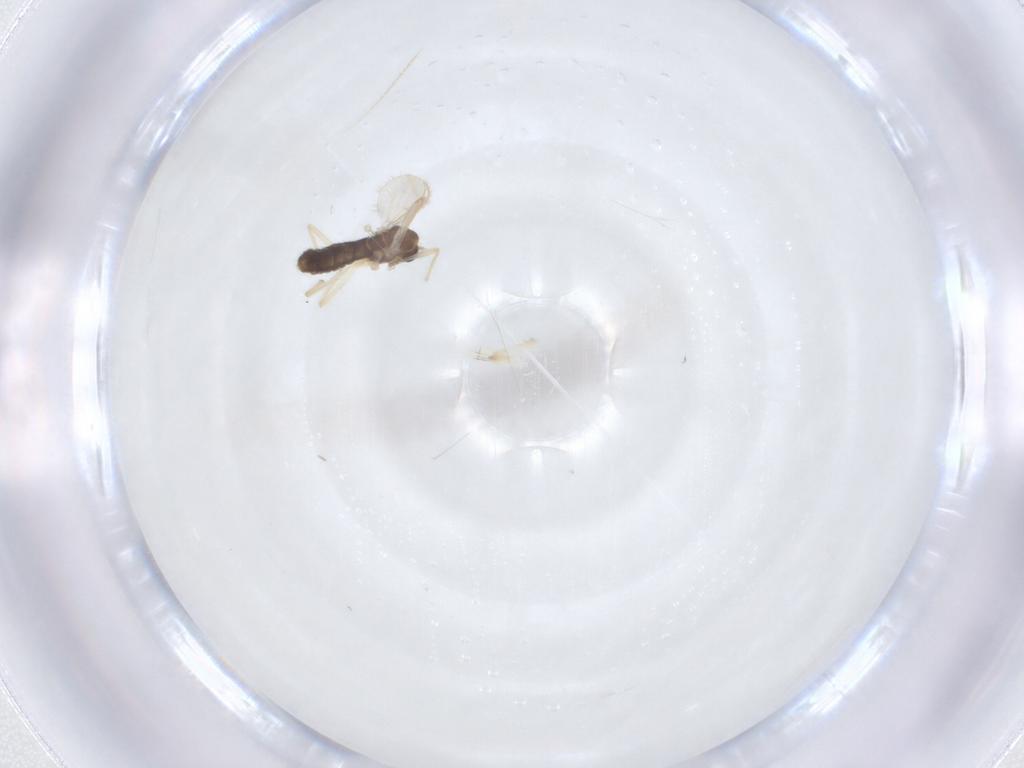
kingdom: Animalia
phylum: Arthropoda
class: Insecta
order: Diptera
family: Chironomidae
